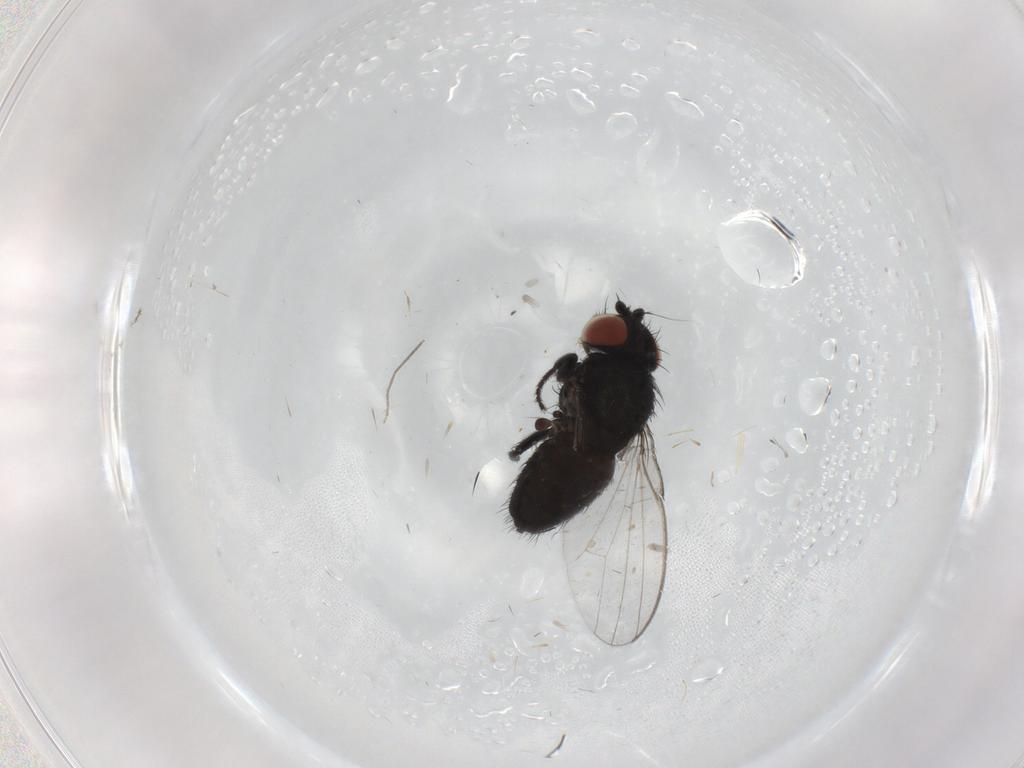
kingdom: Animalia
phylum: Arthropoda
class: Insecta
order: Diptera
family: Milichiidae
